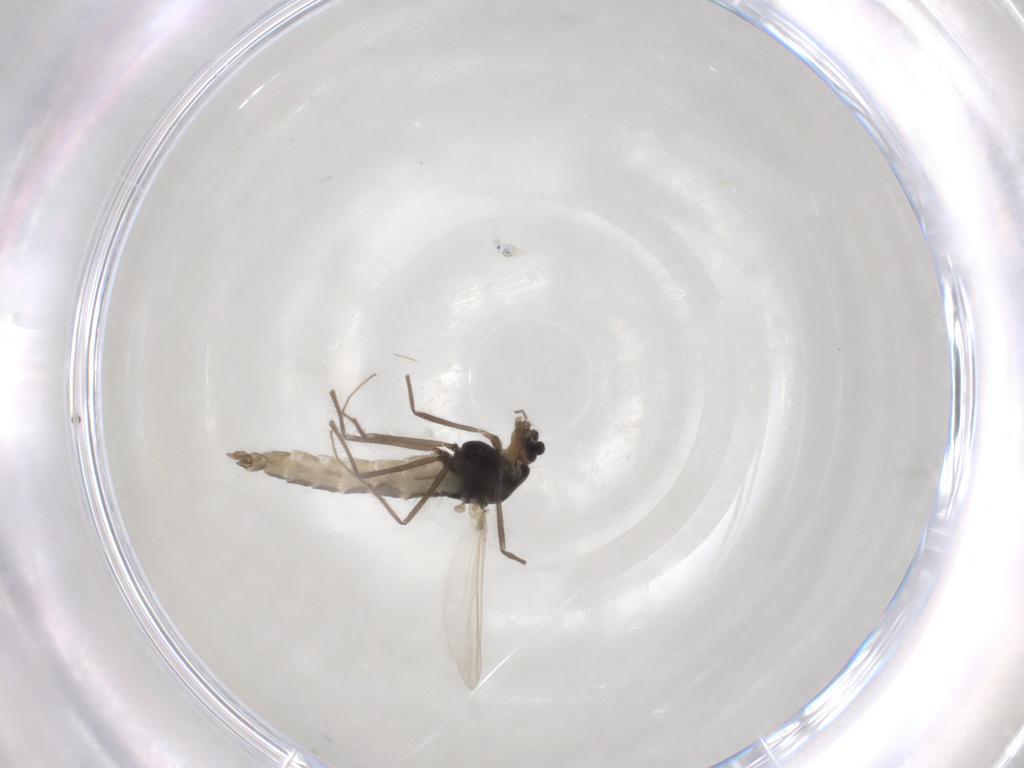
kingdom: Animalia
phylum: Arthropoda
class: Insecta
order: Diptera
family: Chironomidae
